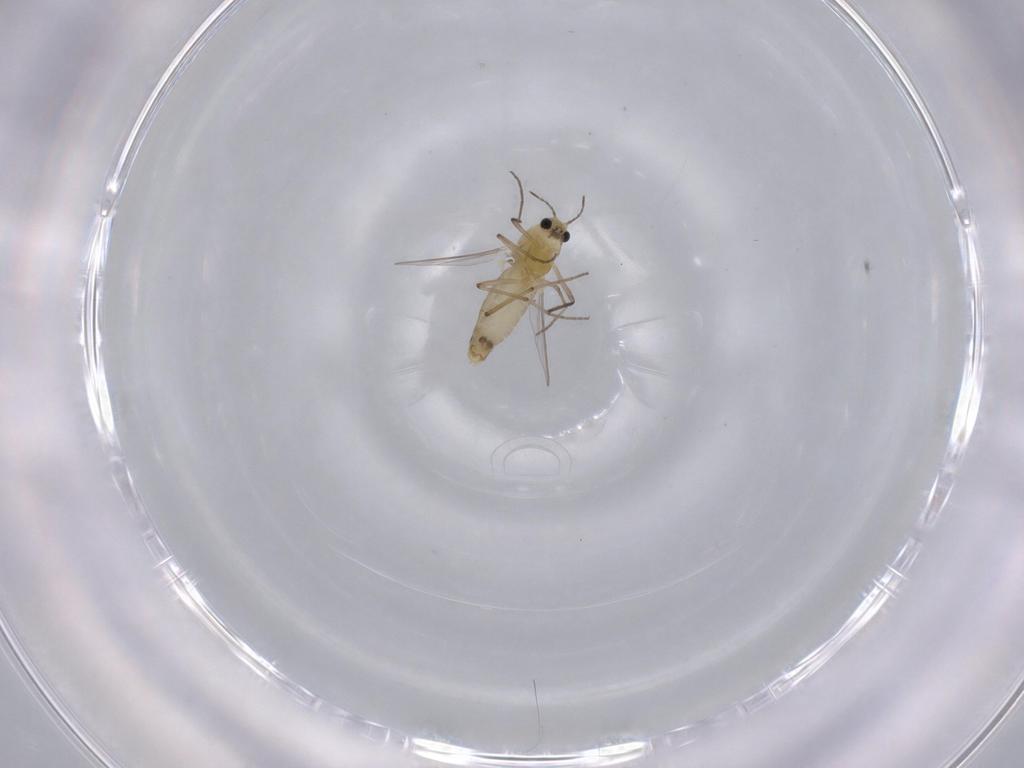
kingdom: Animalia
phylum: Arthropoda
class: Insecta
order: Diptera
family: Chironomidae
